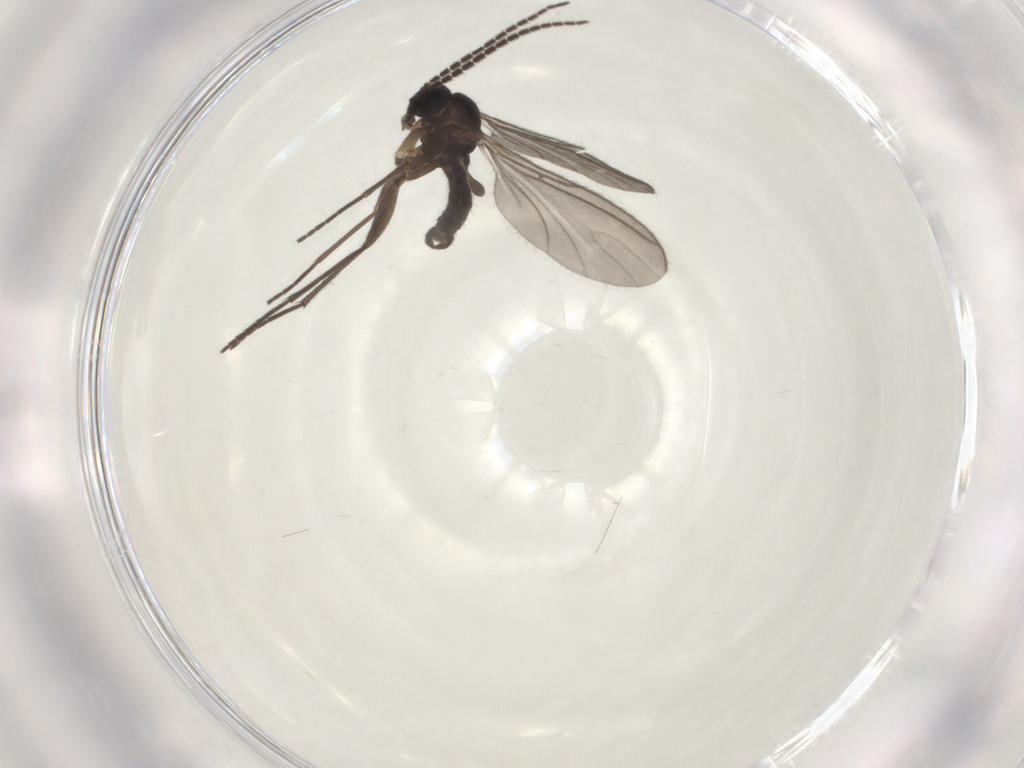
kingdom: Animalia
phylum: Arthropoda
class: Insecta
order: Diptera
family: Sciaridae
